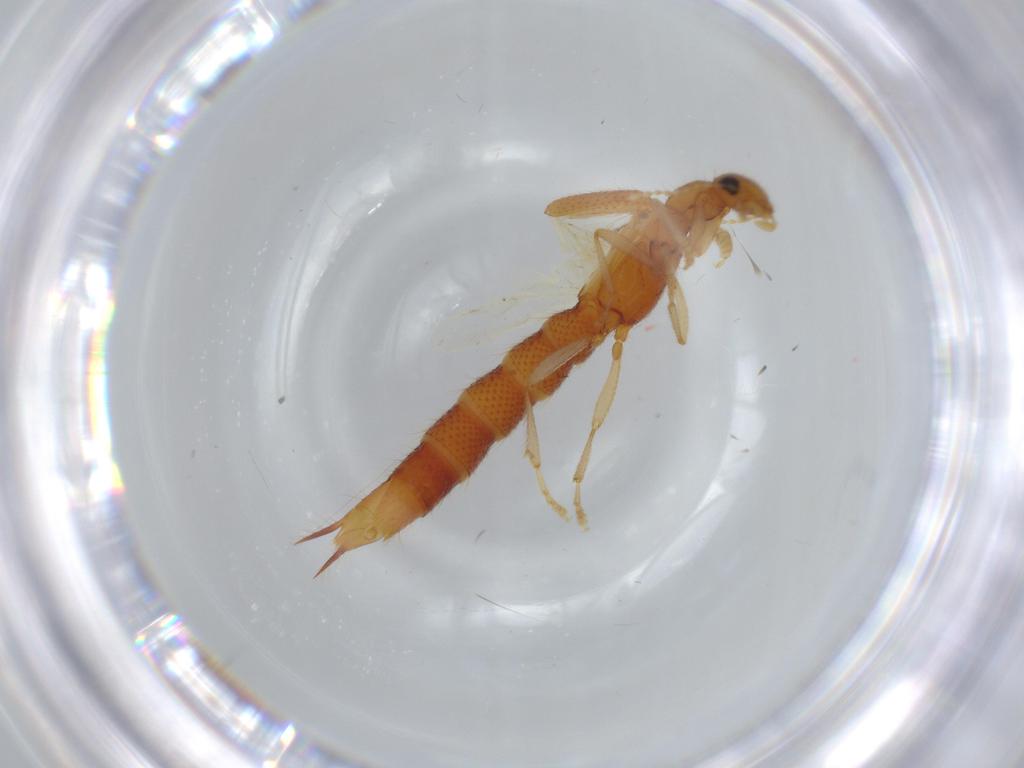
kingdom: Animalia
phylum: Arthropoda
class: Insecta
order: Coleoptera
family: Staphylinidae
